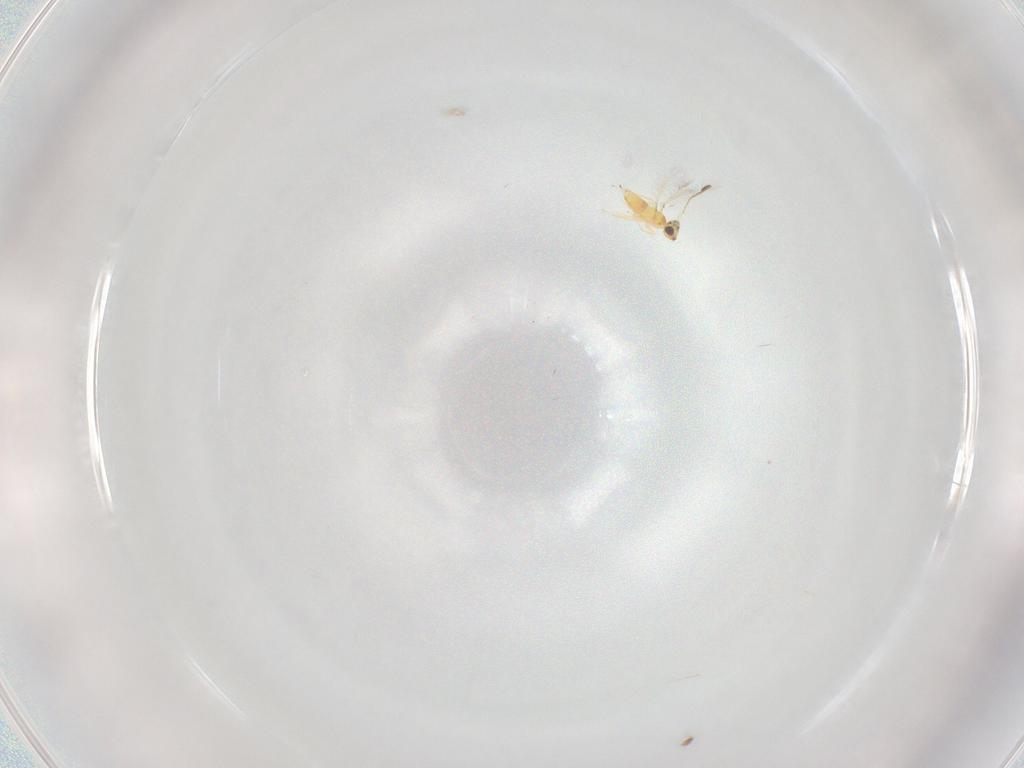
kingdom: Animalia
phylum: Arthropoda
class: Insecta
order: Hymenoptera
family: Mymaridae
